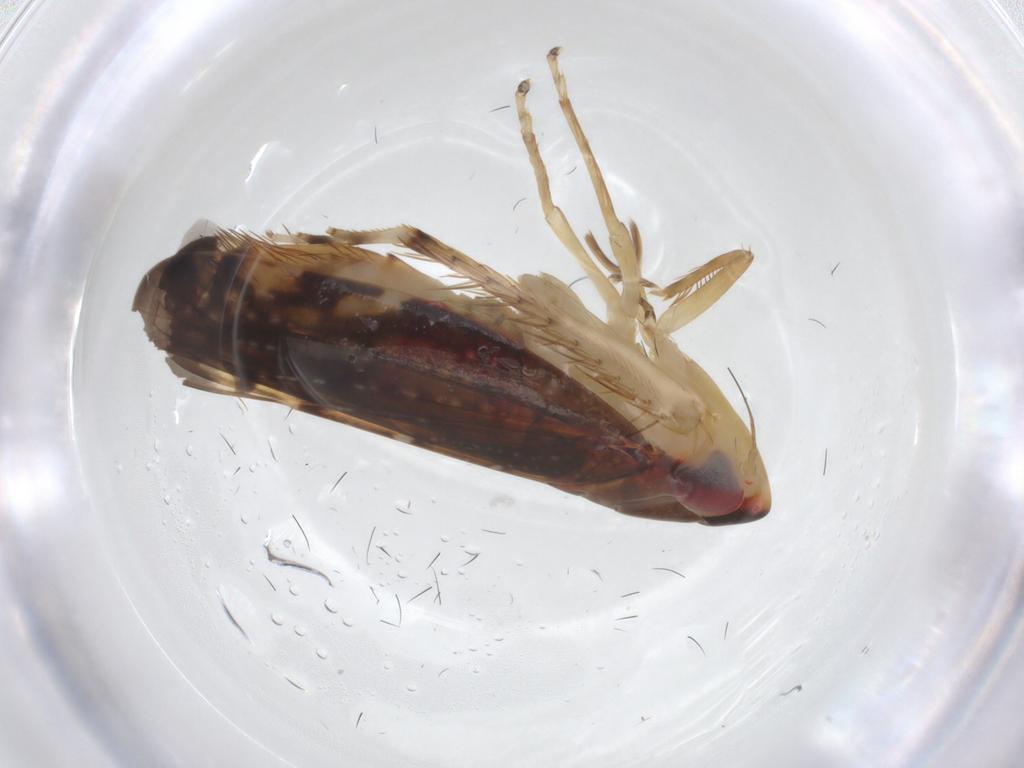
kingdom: Animalia
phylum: Arthropoda
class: Insecta
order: Hemiptera
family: Cicadellidae
